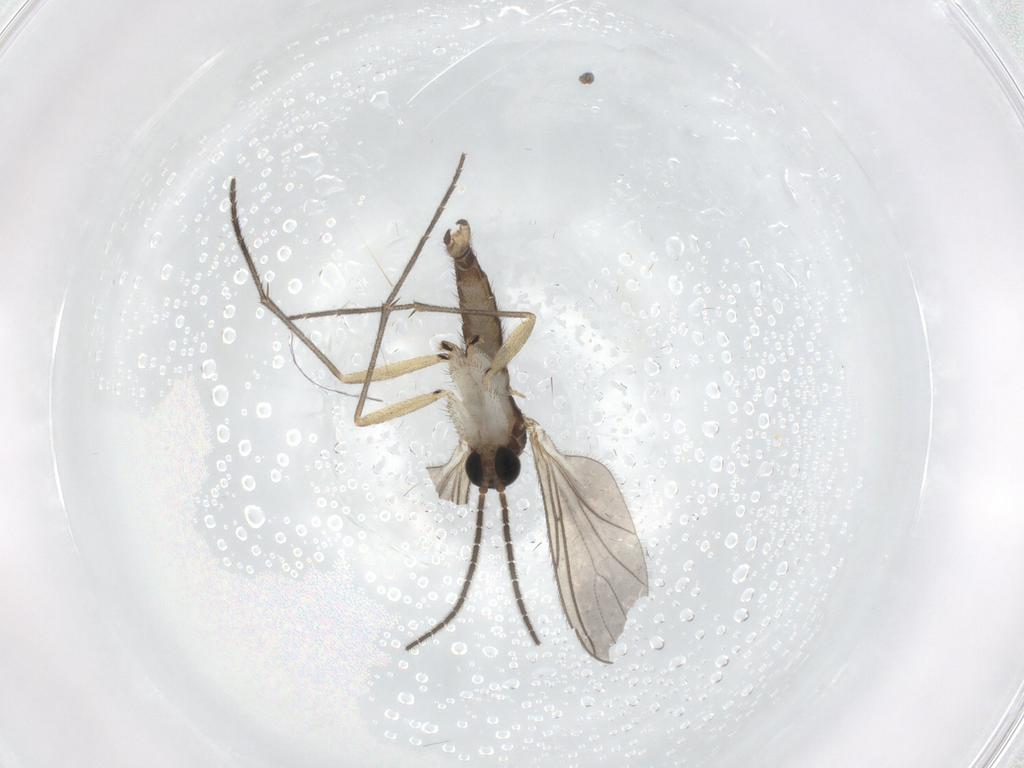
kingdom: Animalia
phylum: Arthropoda
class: Insecta
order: Diptera
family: Sciaridae
